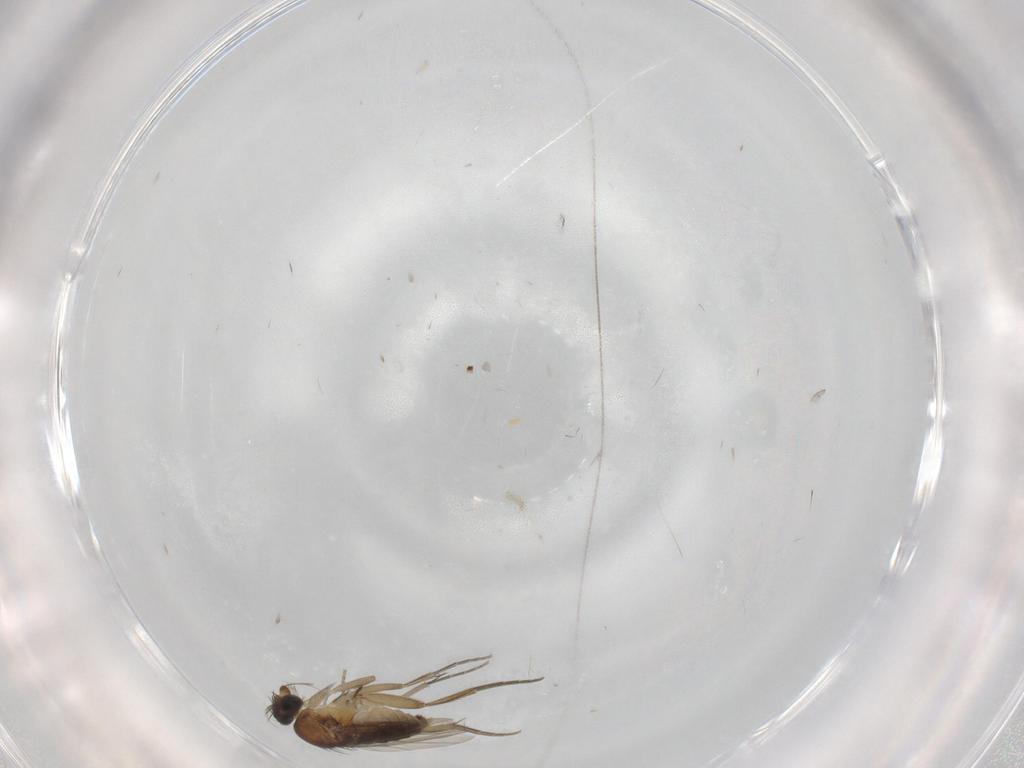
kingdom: Animalia
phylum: Arthropoda
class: Insecta
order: Diptera
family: Phoridae
